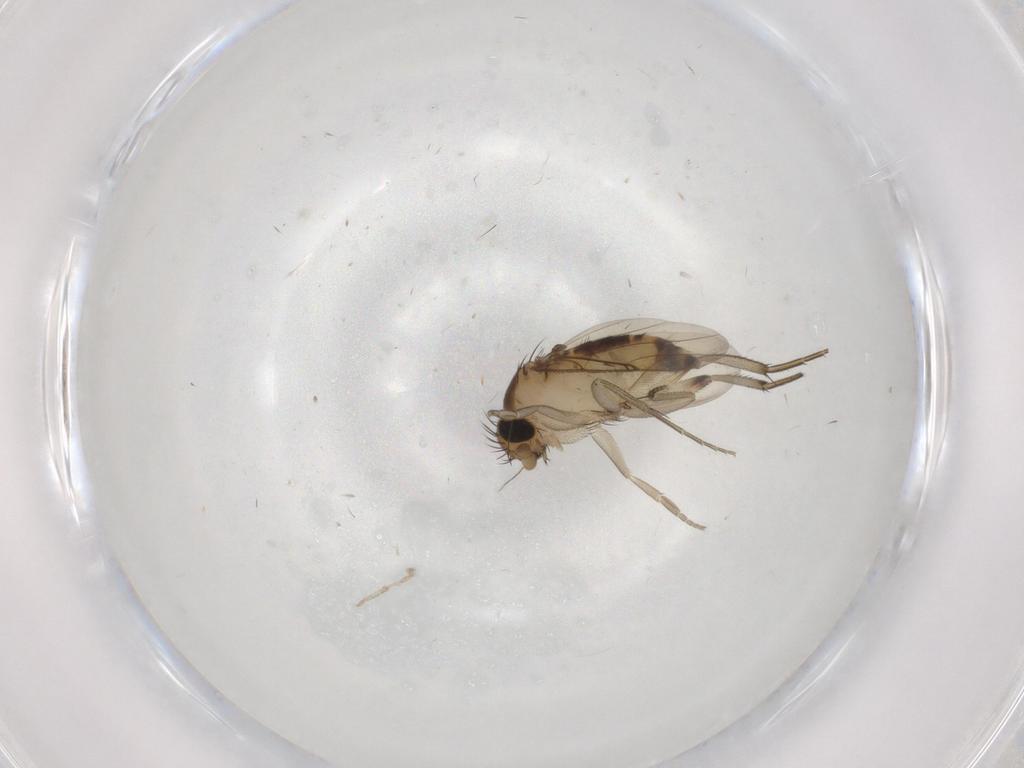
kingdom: Animalia
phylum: Arthropoda
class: Insecta
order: Diptera
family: Phoridae
